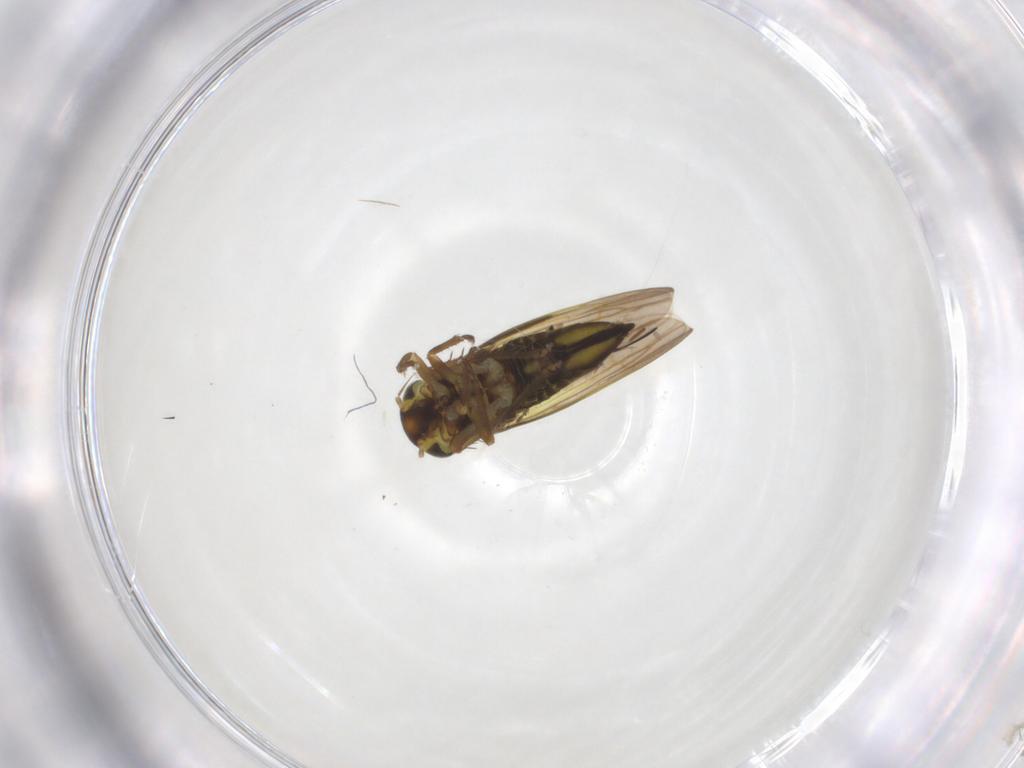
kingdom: Animalia
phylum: Arthropoda
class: Insecta
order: Hemiptera
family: Cicadellidae
